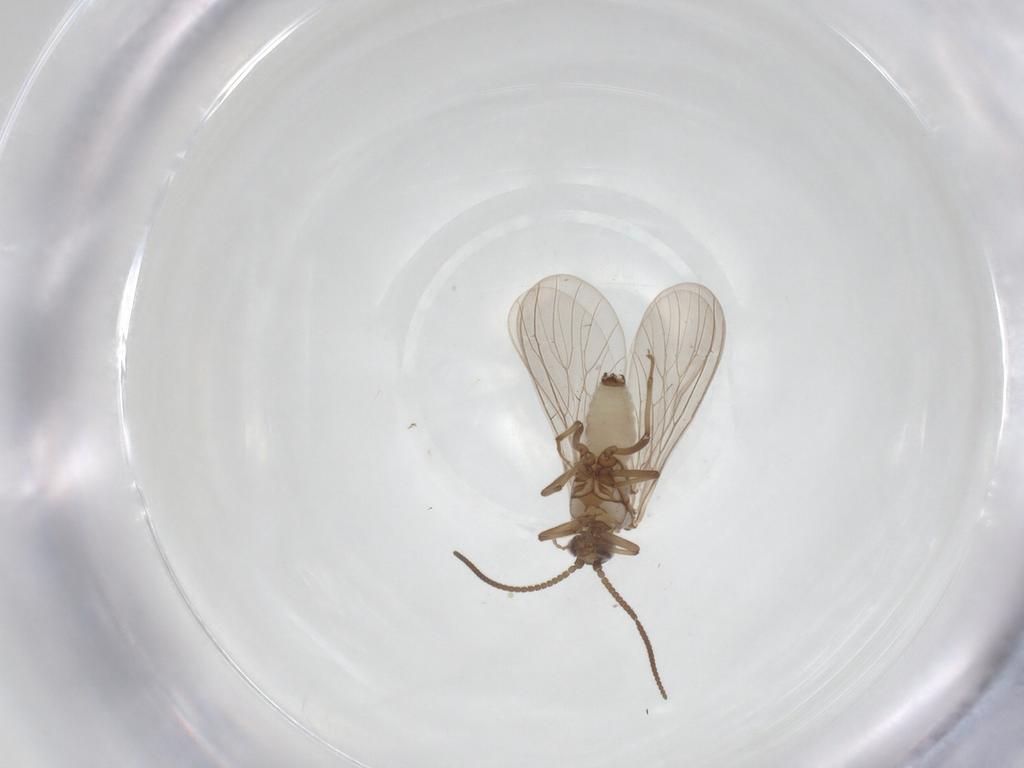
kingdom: Animalia
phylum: Arthropoda
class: Insecta
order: Neuroptera
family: Coniopterygidae
